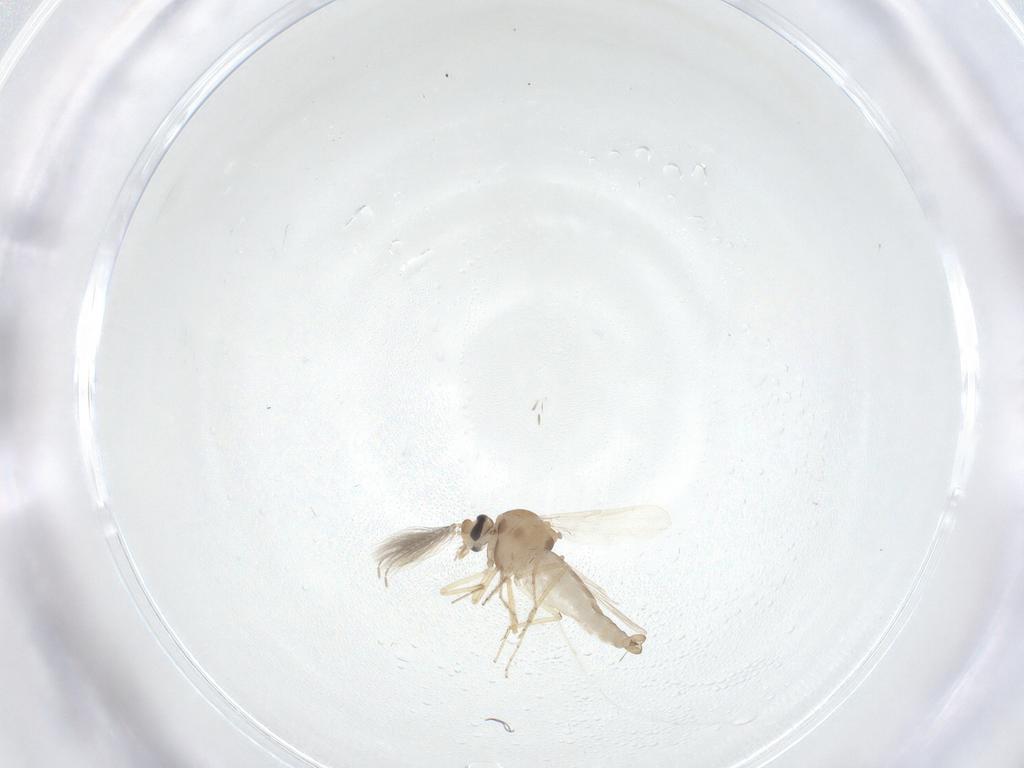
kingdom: Animalia
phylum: Arthropoda
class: Insecta
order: Diptera
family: Ceratopogonidae
